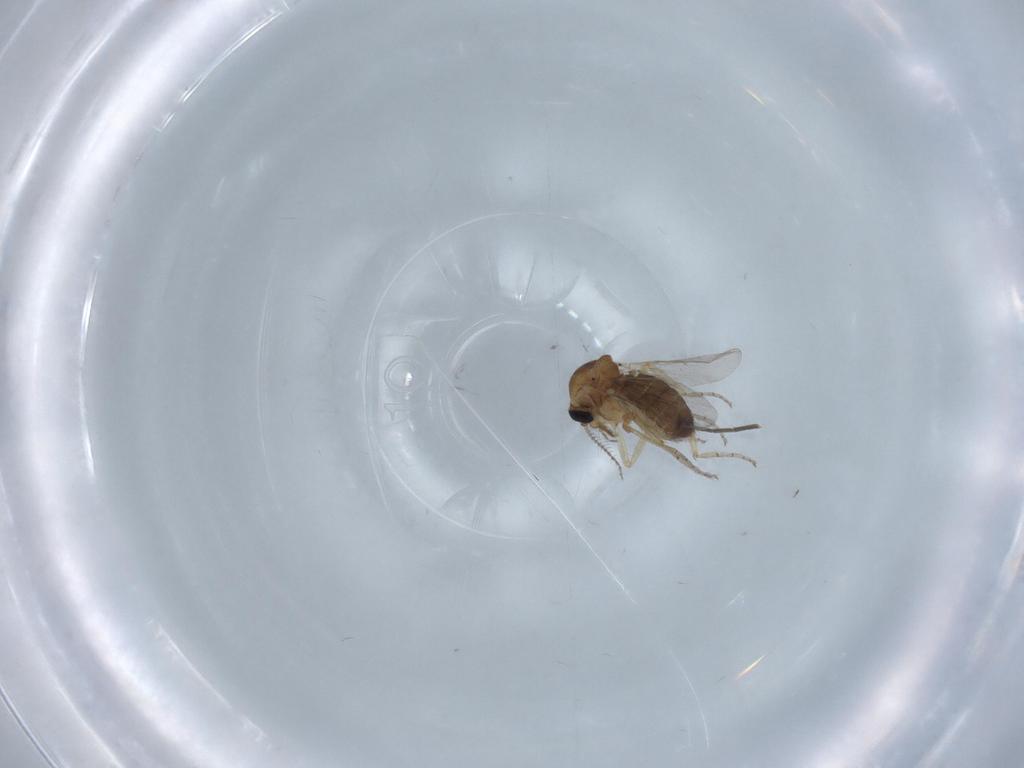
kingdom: Animalia
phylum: Arthropoda
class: Insecta
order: Diptera
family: Ceratopogonidae
